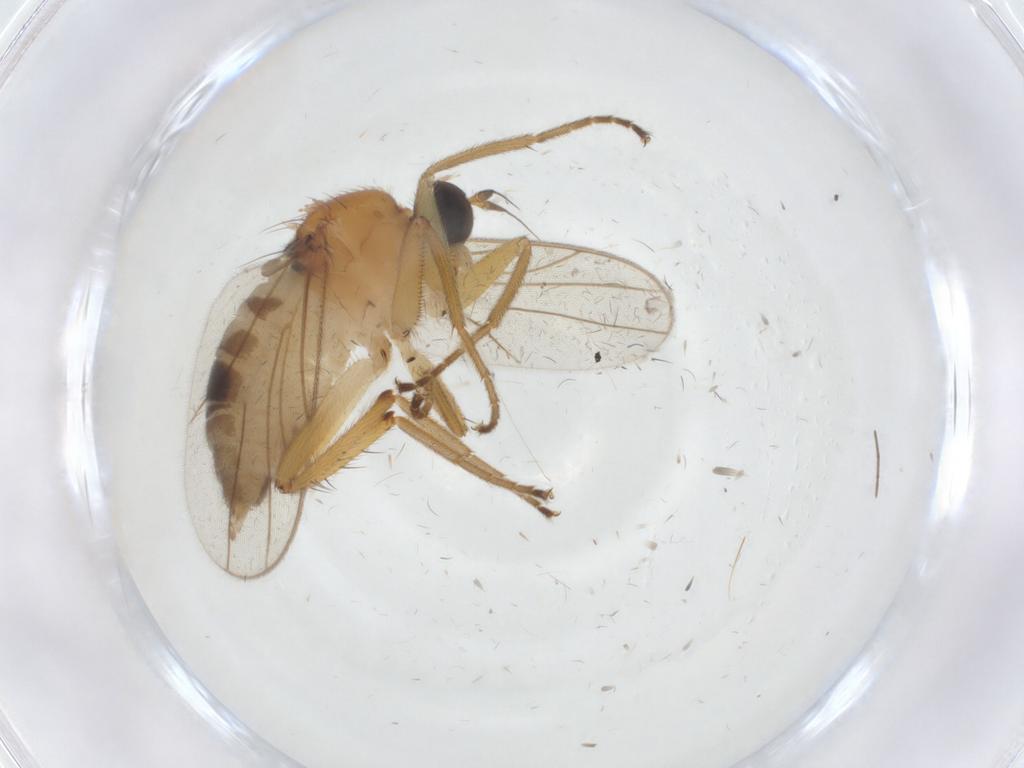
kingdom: Animalia
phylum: Arthropoda
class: Insecta
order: Diptera
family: Hybotidae
